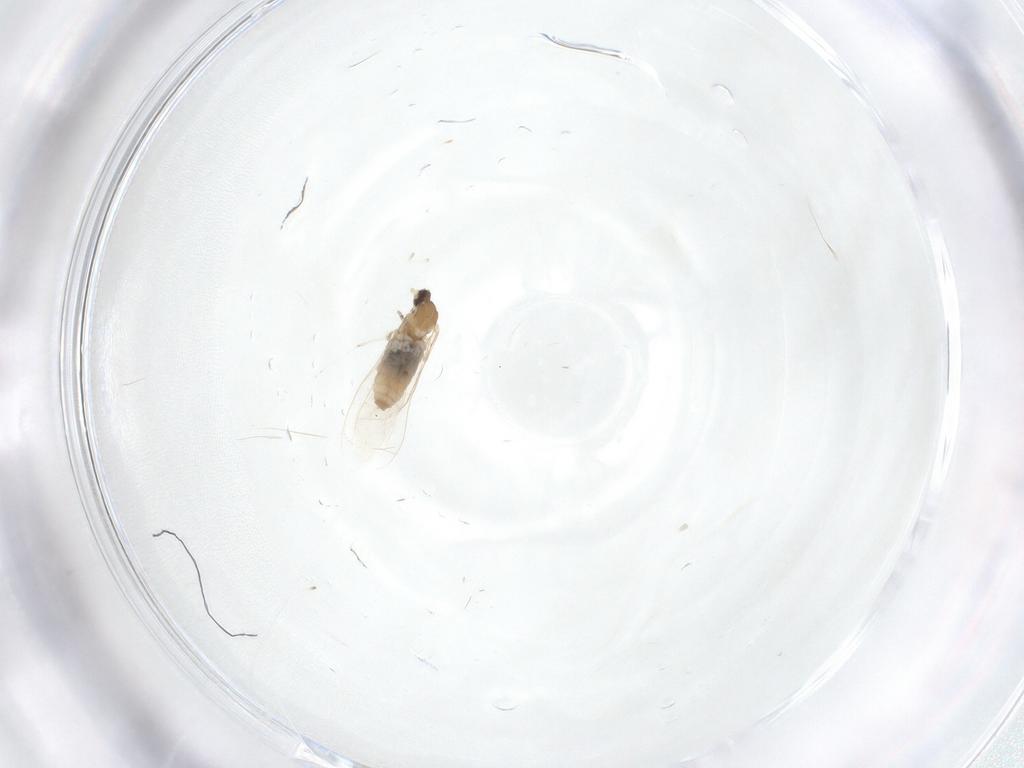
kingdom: Animalia
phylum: Arthropoda
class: Insecta
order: Diptera
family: Cecidomyiidae
